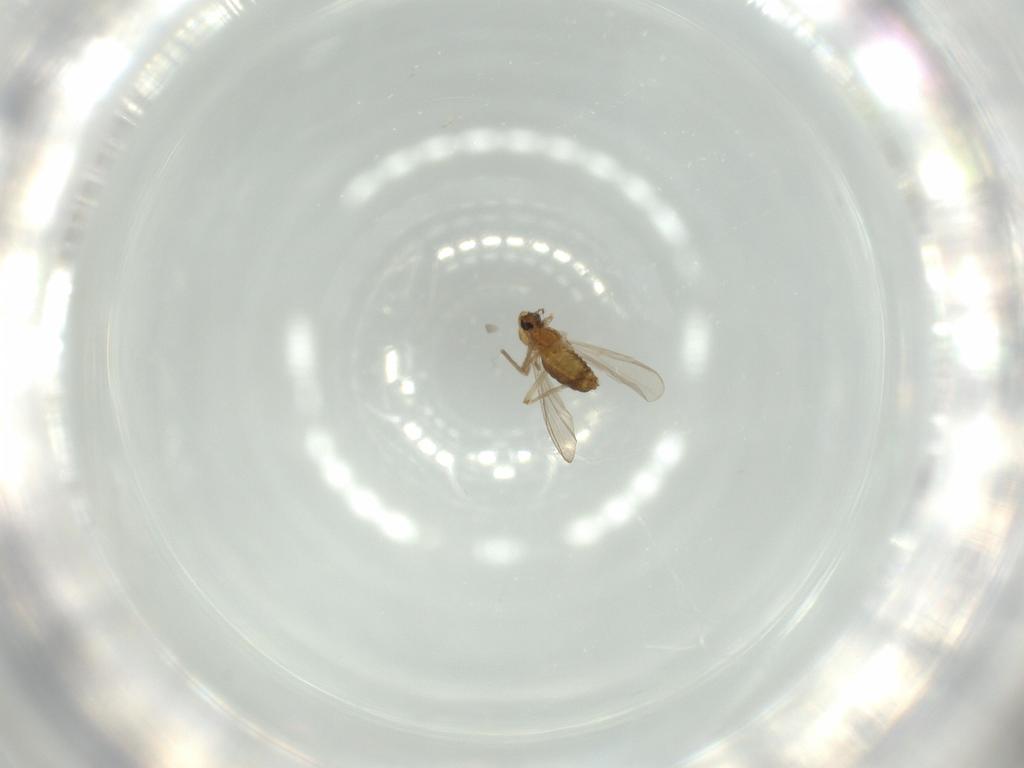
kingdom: Animalia
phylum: Arthropoda
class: Insecta
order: Diptera
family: Chironomidae
